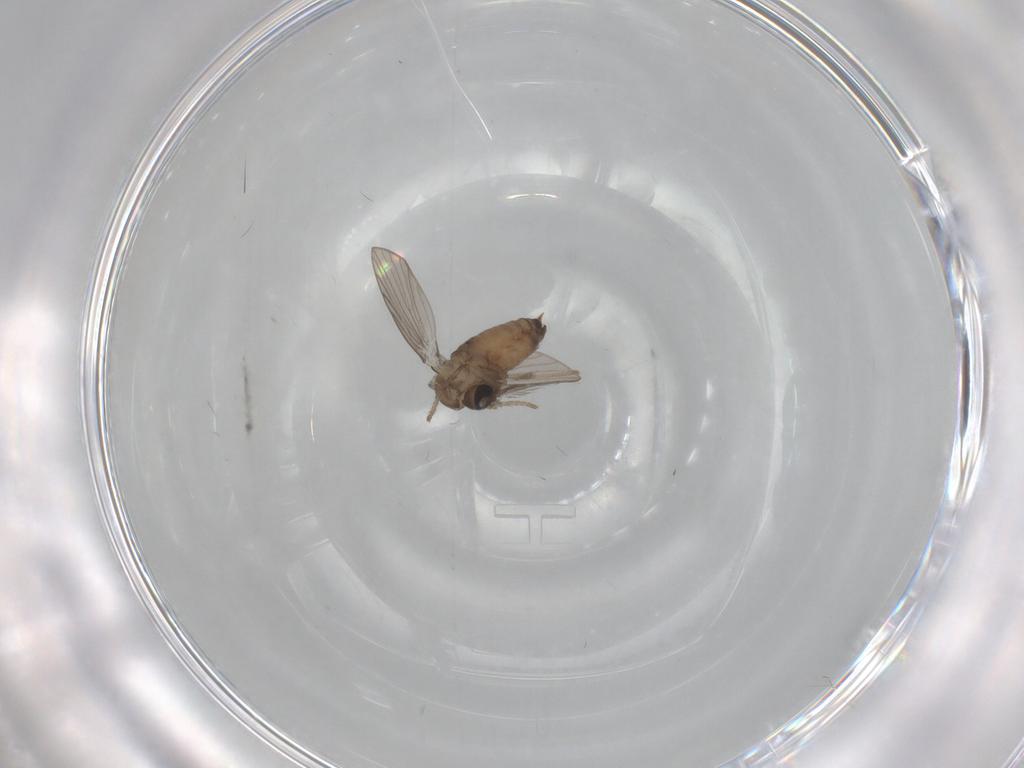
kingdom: Animalia
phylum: Arthropoda
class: Insecta
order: Diptera
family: Psychodidae
